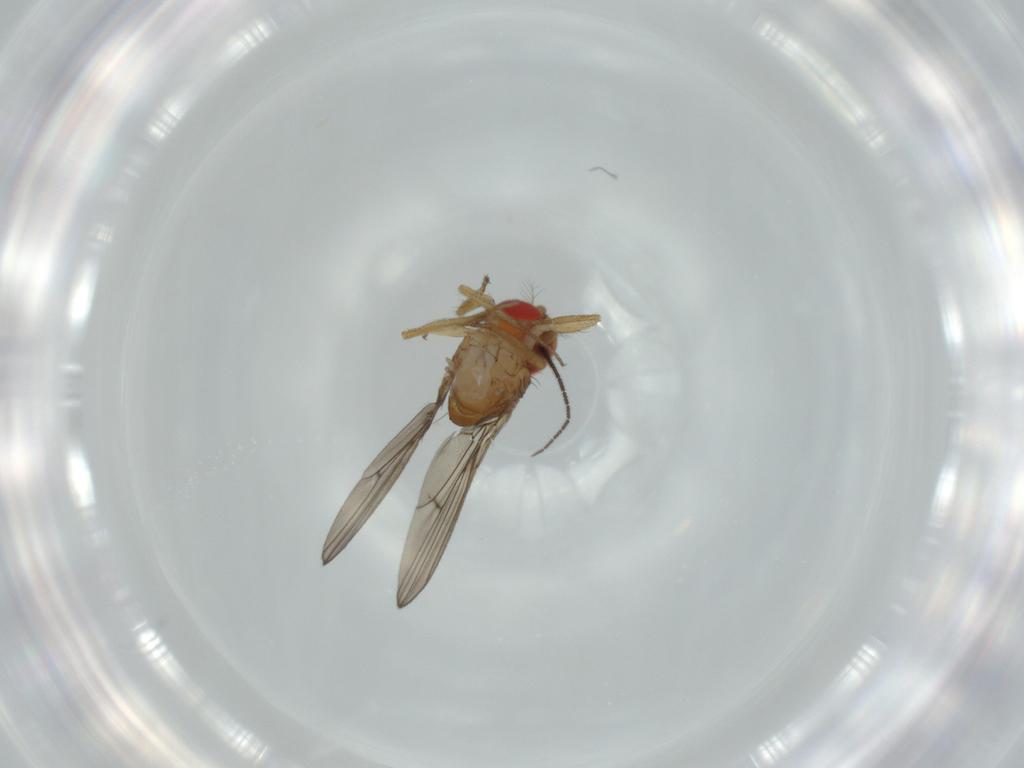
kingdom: Animalia
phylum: Arthropoda
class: Insecta
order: Diptera
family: Drosophilidae
